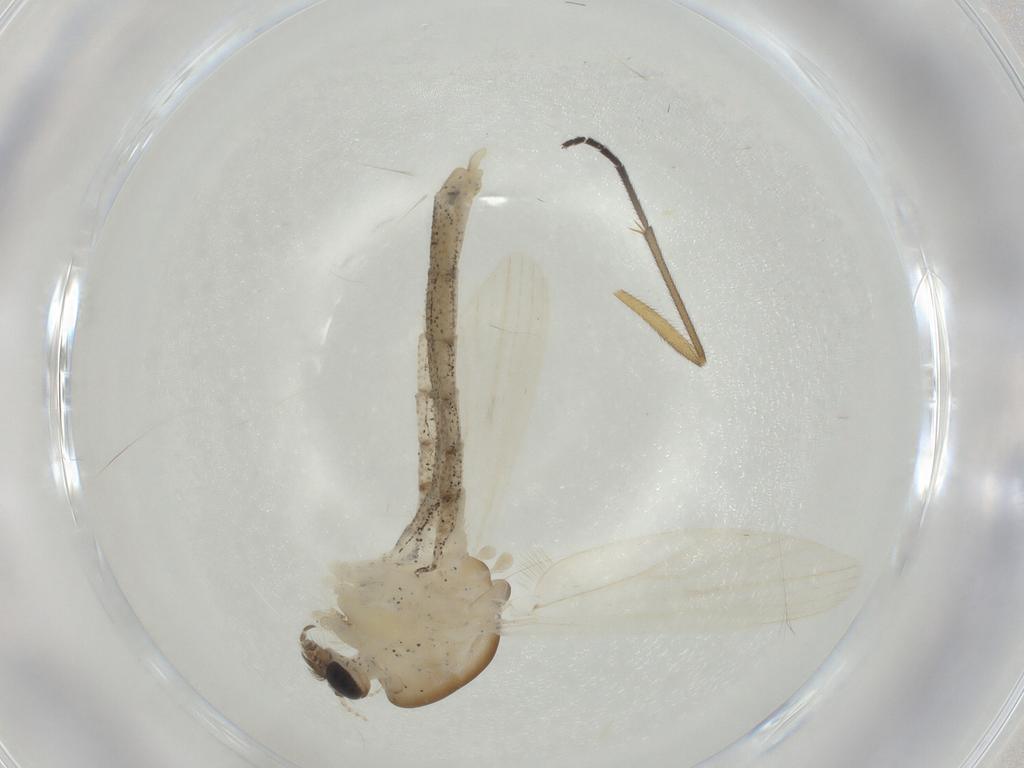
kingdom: Animalia
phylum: Arthropoda
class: Insecta
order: Diptera
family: Chaoboridae
